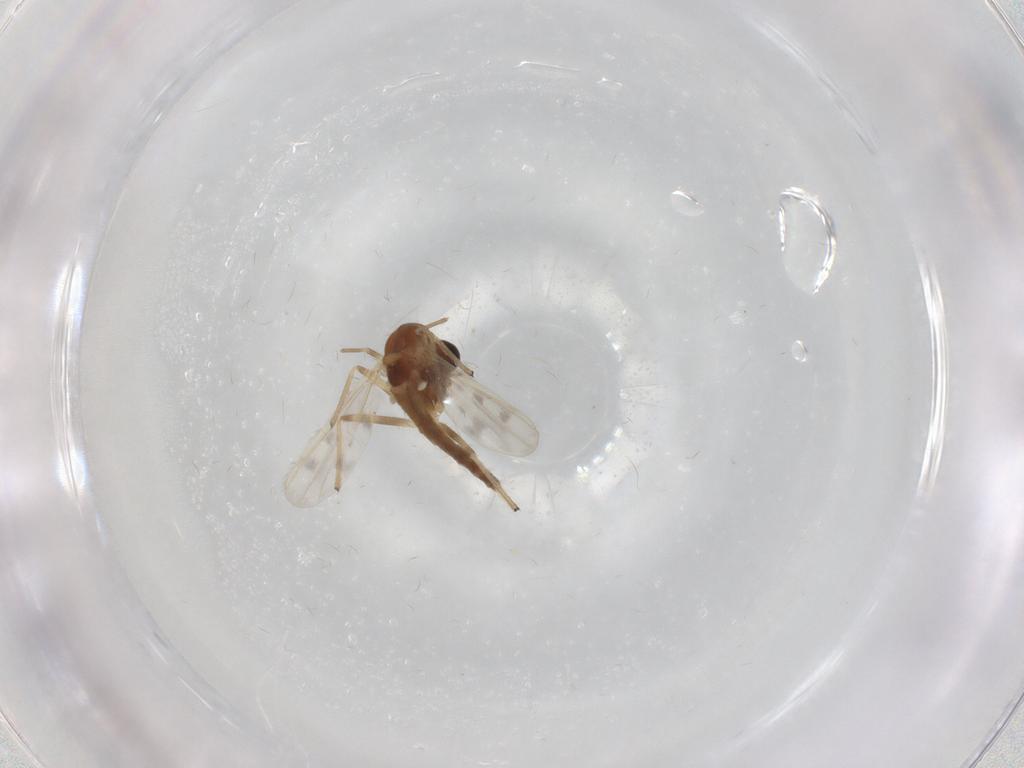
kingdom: Animalia
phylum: Arthropoda
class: Insecta
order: Diptera
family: Chironomidae
